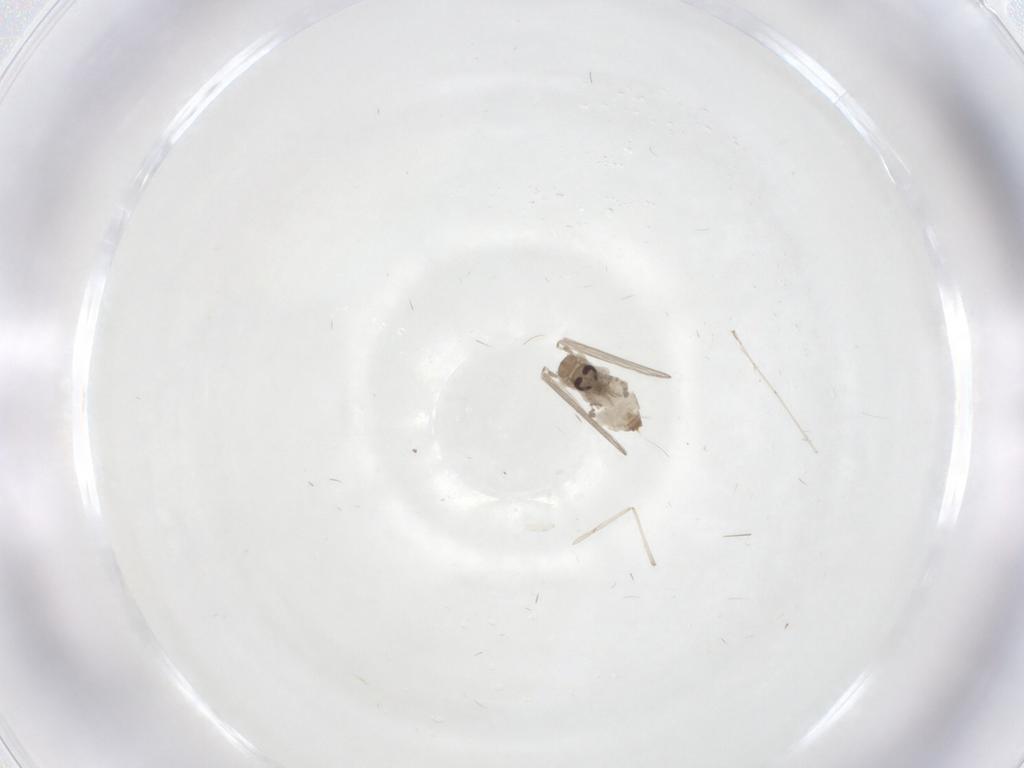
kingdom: Animalia
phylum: Arthropoda
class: Insecta
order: Diptera
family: Psychodidae
